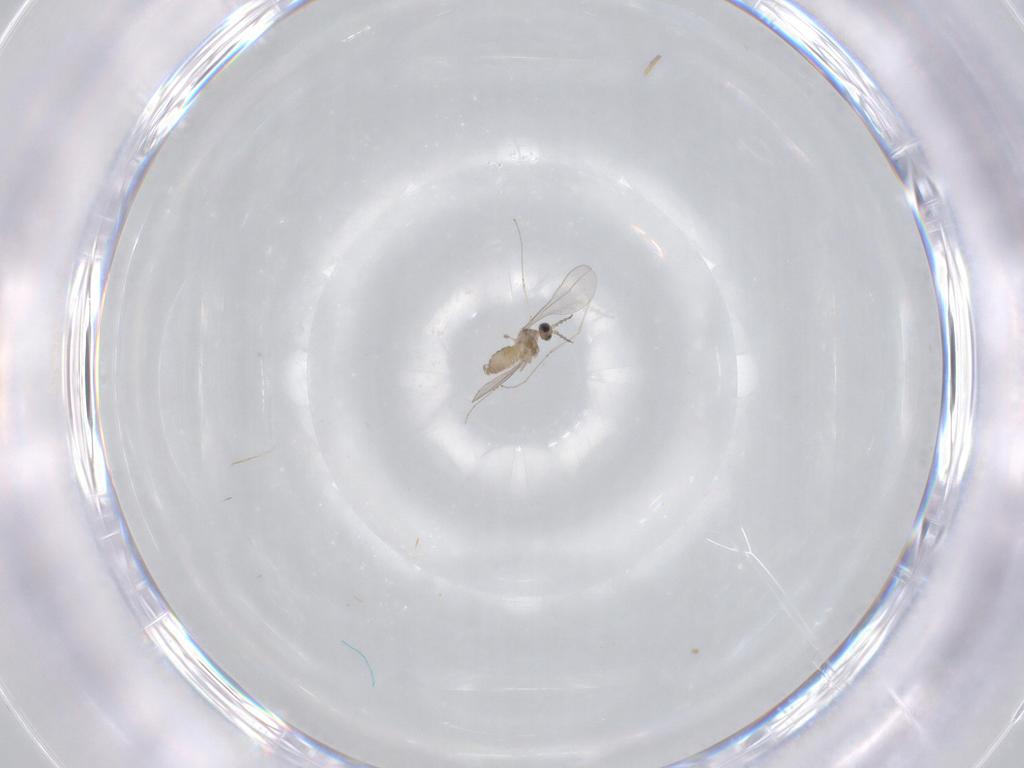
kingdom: Animalia
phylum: Arthropoda
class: Insecta
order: Diptera
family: Cecidomyiidae
